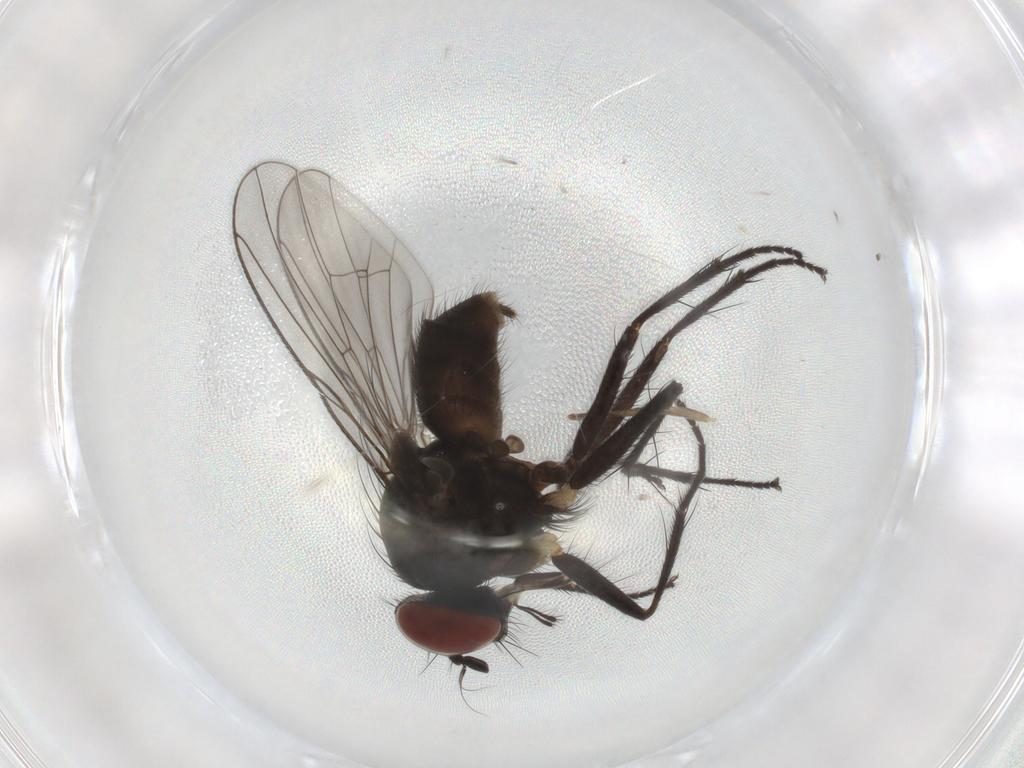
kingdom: Animalia
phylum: Arthropoda
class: Insecta
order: Diptera
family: Muscidae
